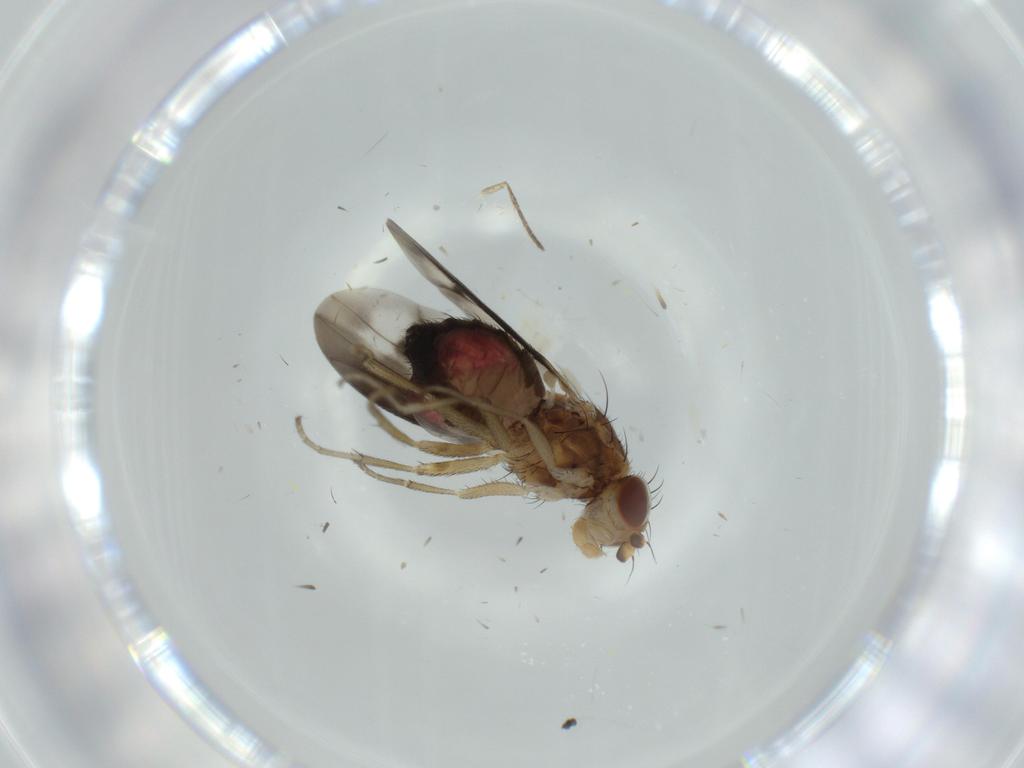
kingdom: Animalia
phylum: Arthropoda
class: Insecta
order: Diptera
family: Heleomyzidae
